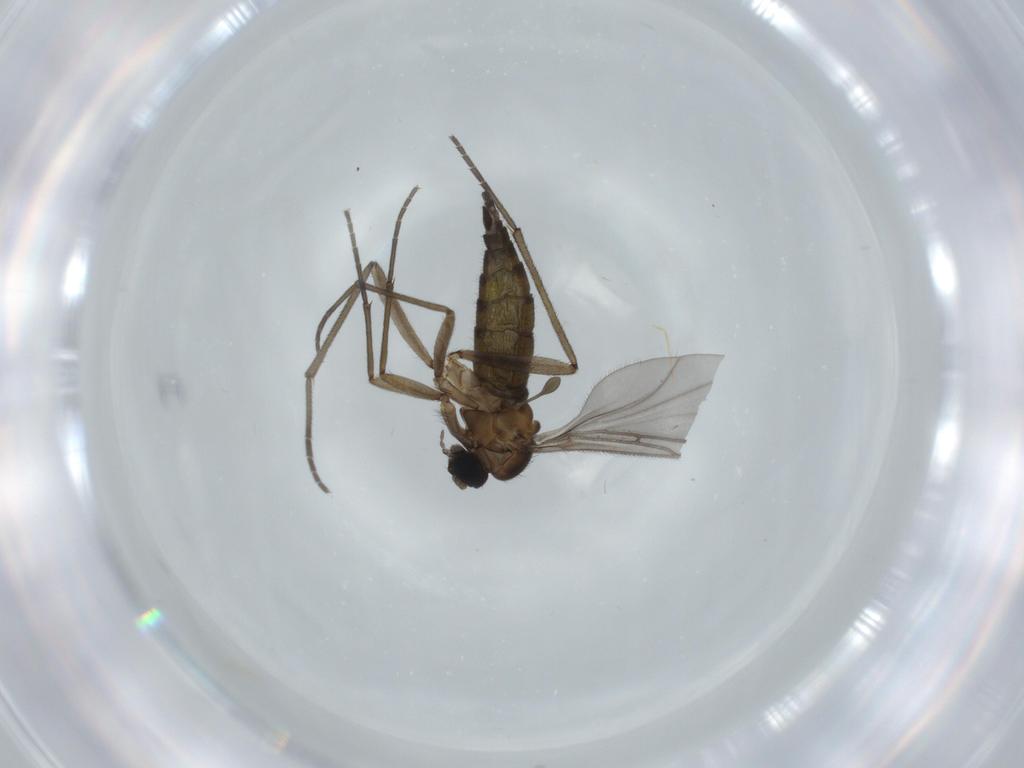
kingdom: Animalia
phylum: Arthropoda
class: Insecta
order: Diptera
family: Sciaridae
